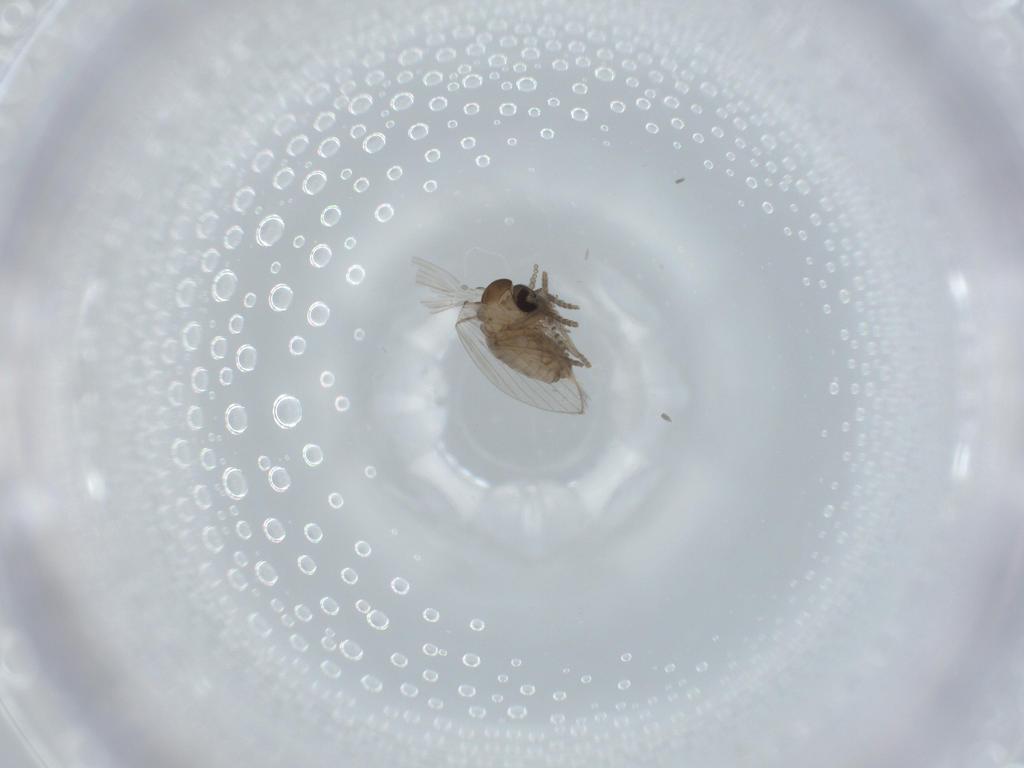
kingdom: Animalia
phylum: Arthropoda
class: Insecta
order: Diptera
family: Psychodidae
